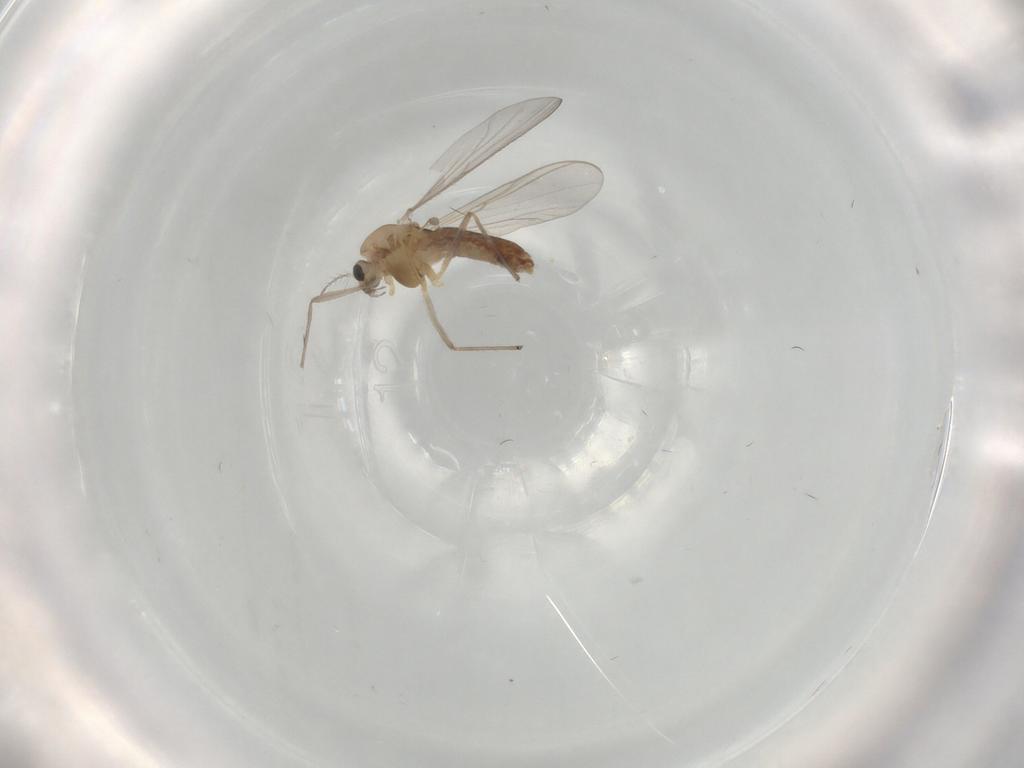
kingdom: Animalia
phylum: Arthropoda
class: Insecta
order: Diptera
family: Chironomidae
